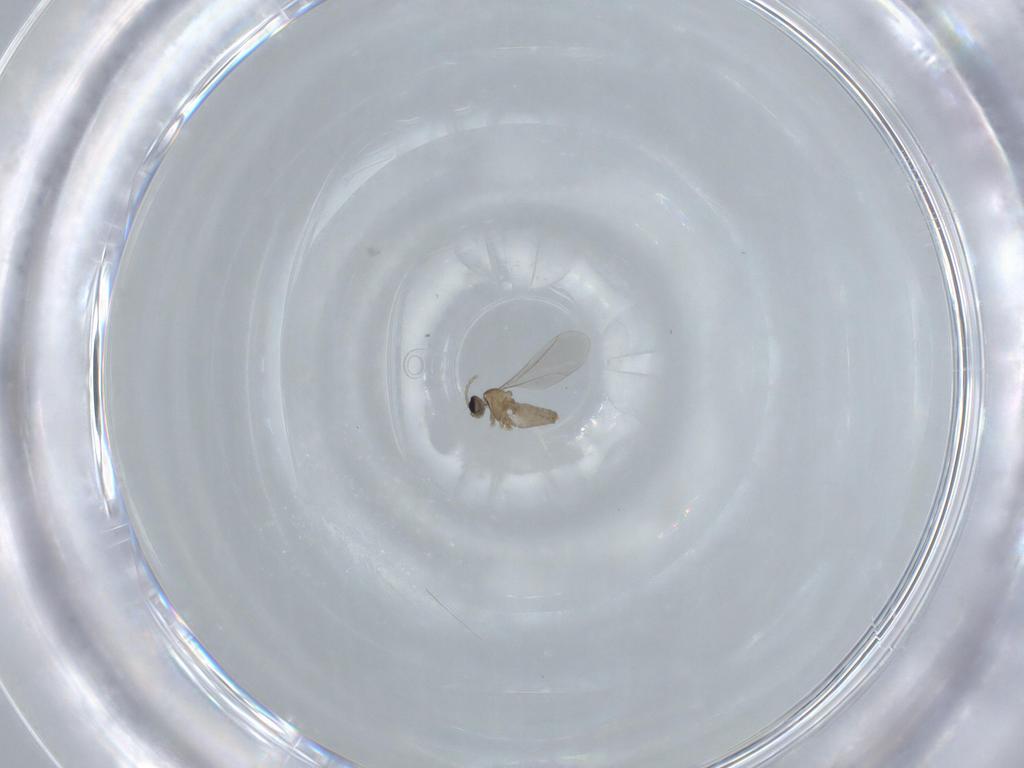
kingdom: Animalia
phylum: Arthropoda
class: Insecta
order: Diptera
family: Cecidomyiidae
